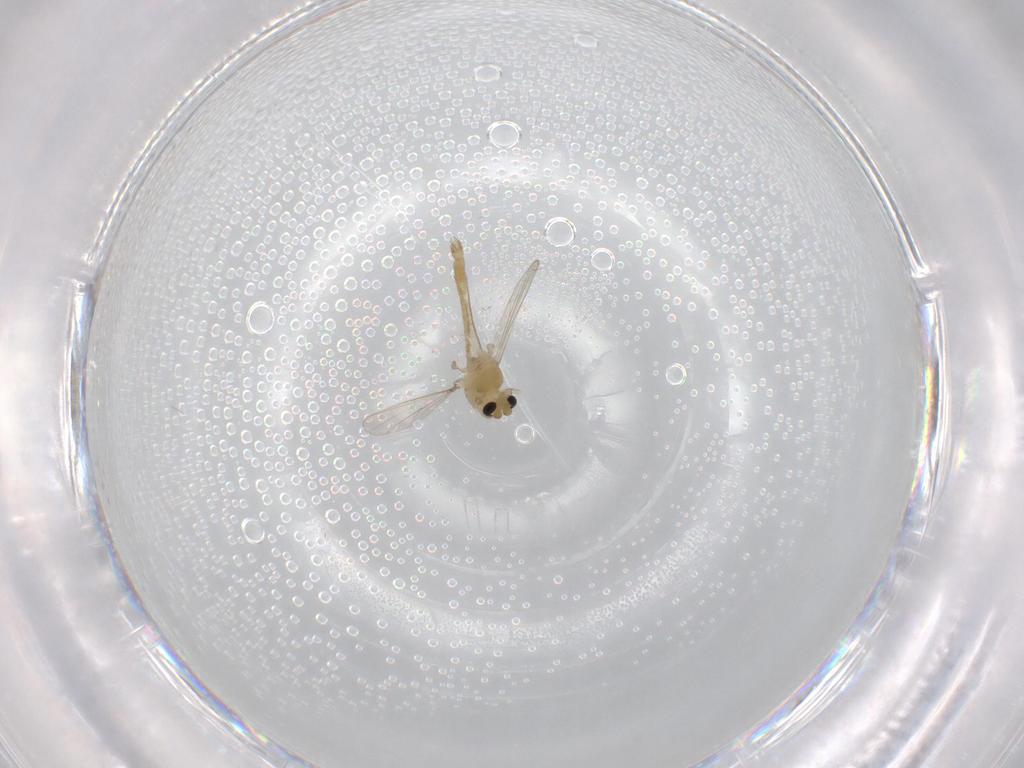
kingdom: Animalia
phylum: Arthropoda
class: Insecta
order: Diptera
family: Chironomidae
